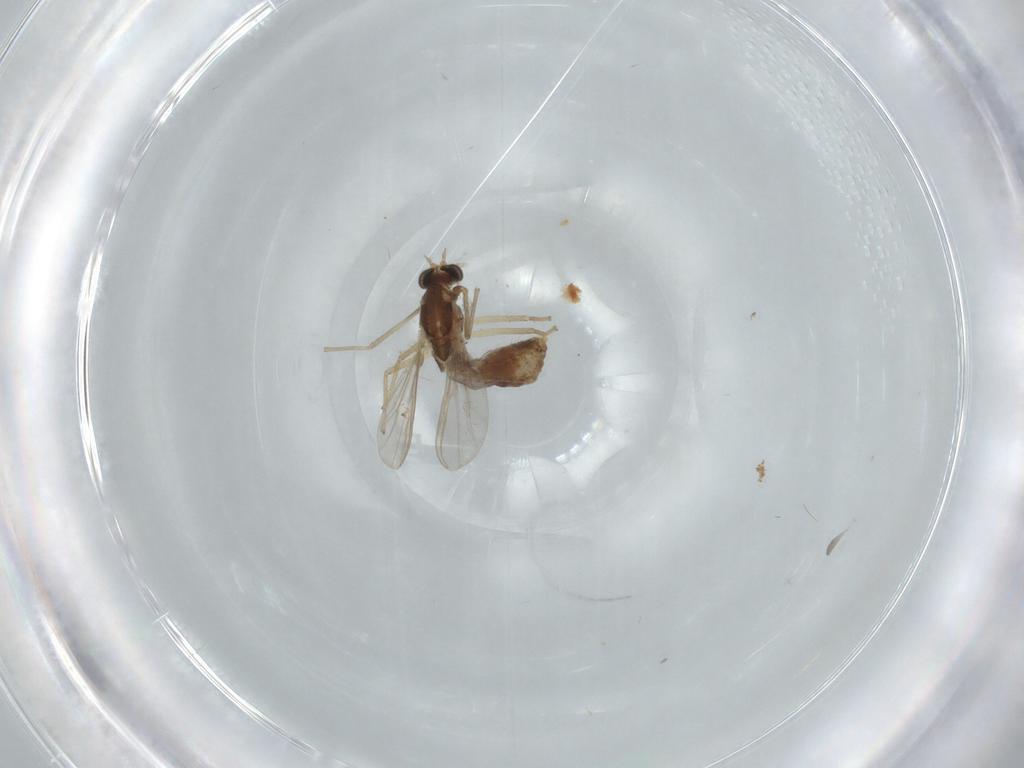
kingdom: Animalia
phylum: Arthropoda
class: Insecta
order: Diptera
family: Chironomidae
